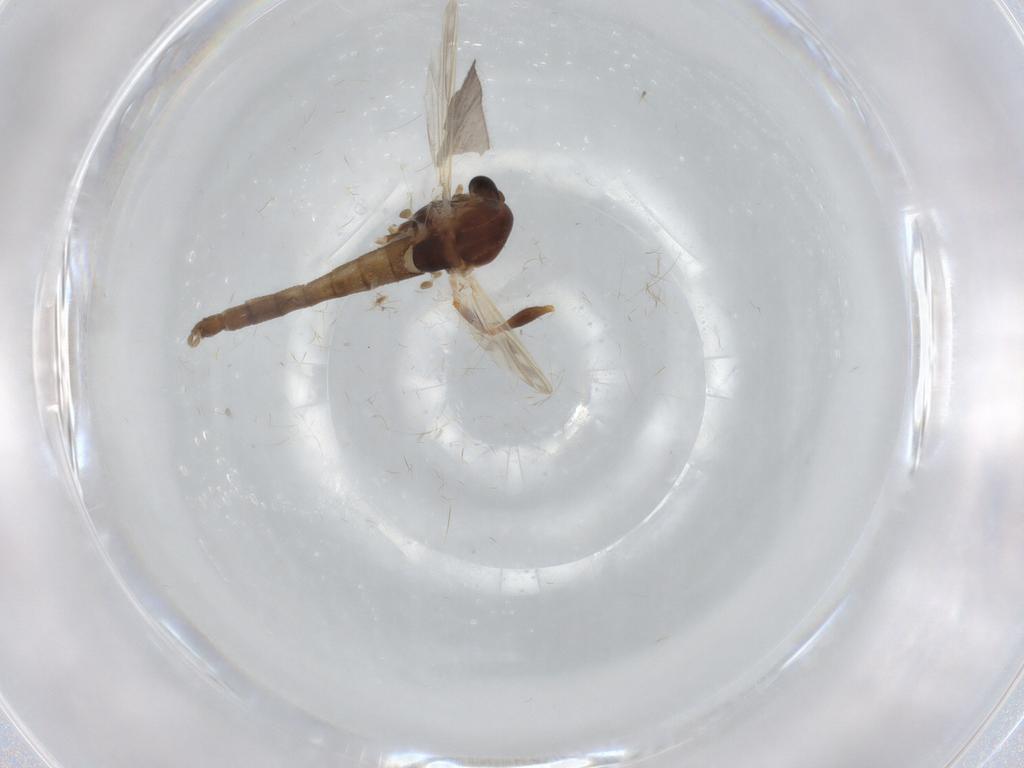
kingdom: Animalia
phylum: Arthropoda
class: Insecta
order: Diptera
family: Chironomidae
